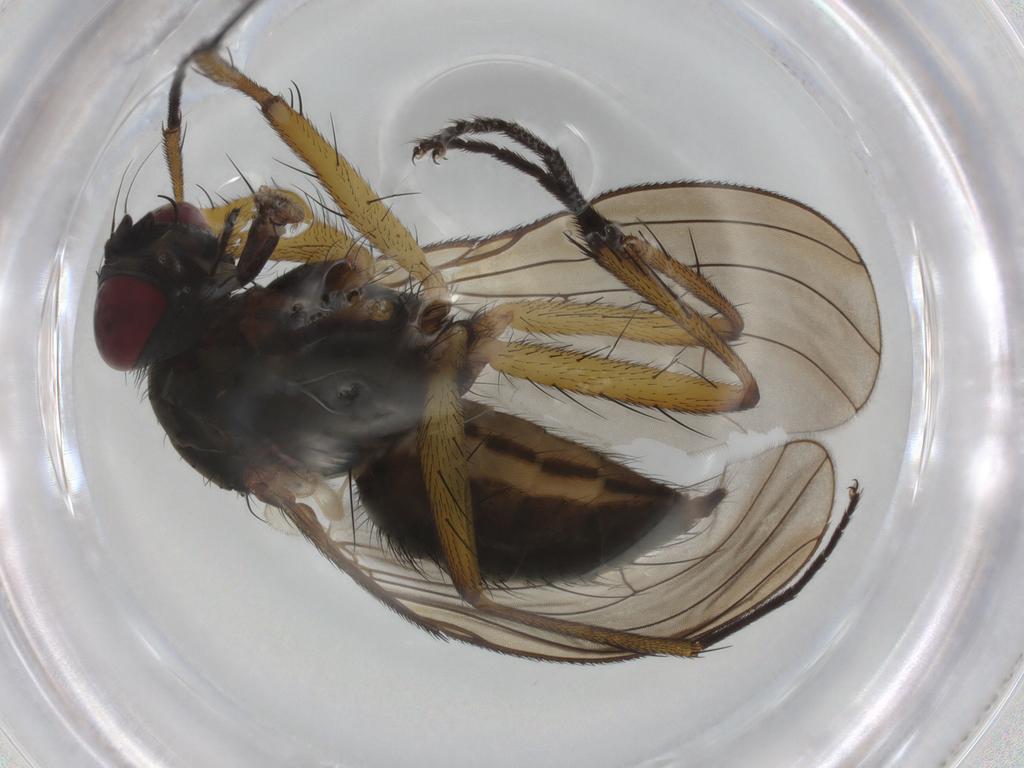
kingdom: Animalia
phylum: Arthropoda
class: Insecta
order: Diptera
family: Muscidae
